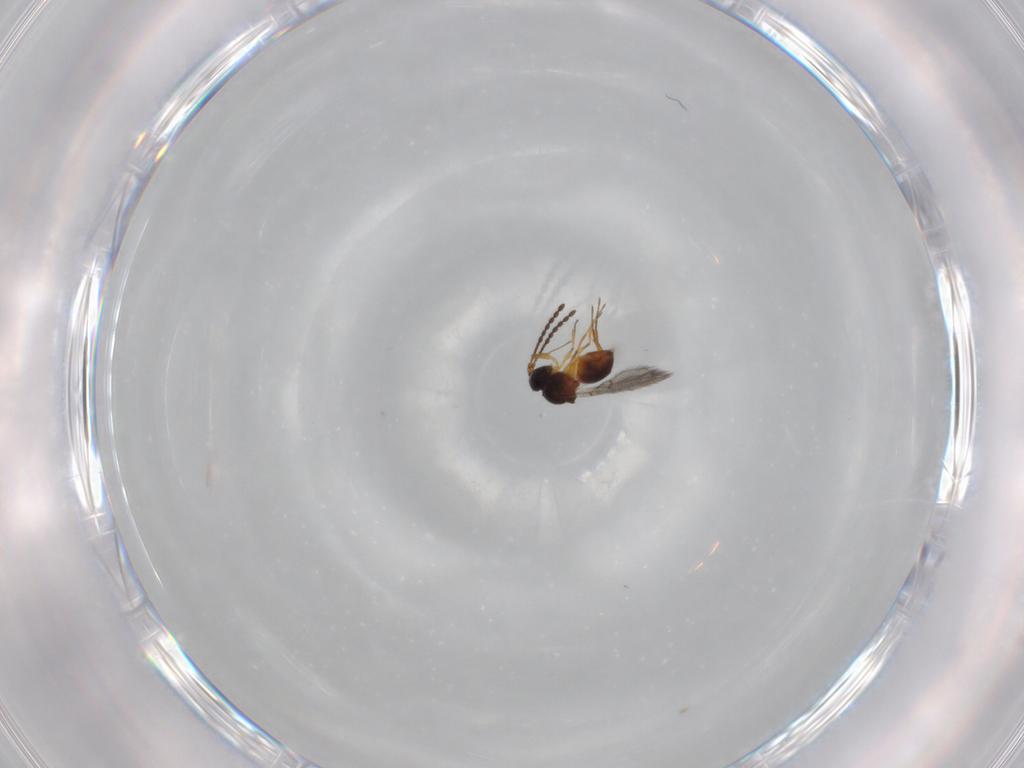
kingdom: Animalia
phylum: Arthropoda
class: Insecta
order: Hymenoptera
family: Figitidae
